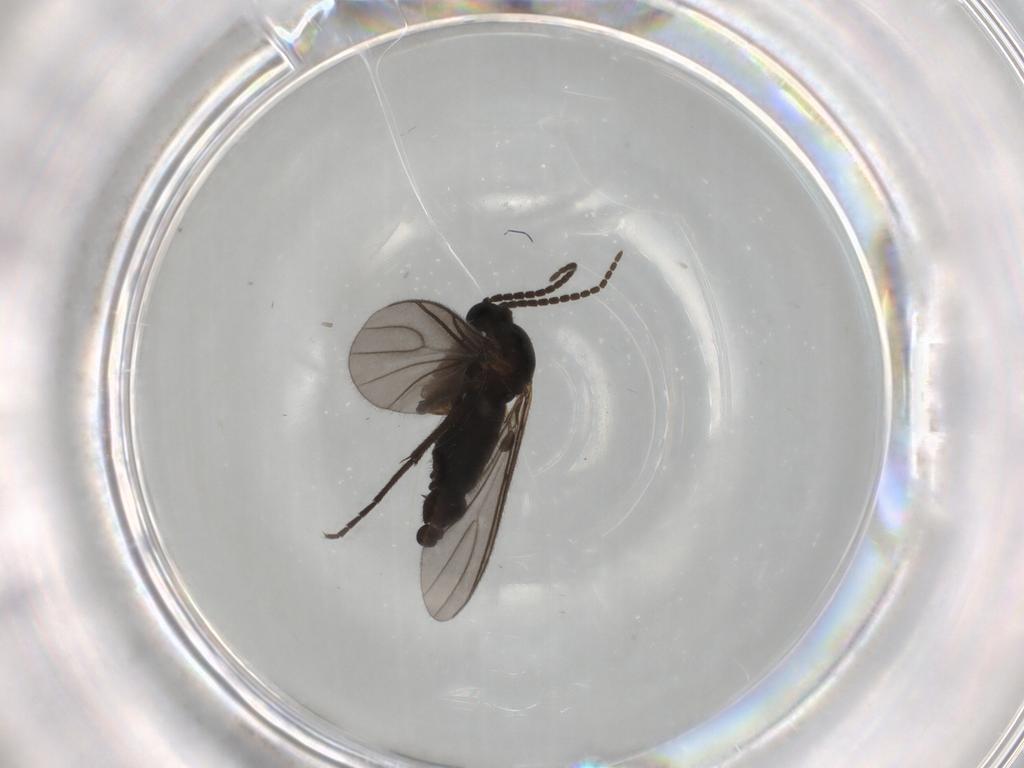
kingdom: Animalia
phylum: Arthropoda
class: Insecta
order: Diptera
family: Sciaridae
